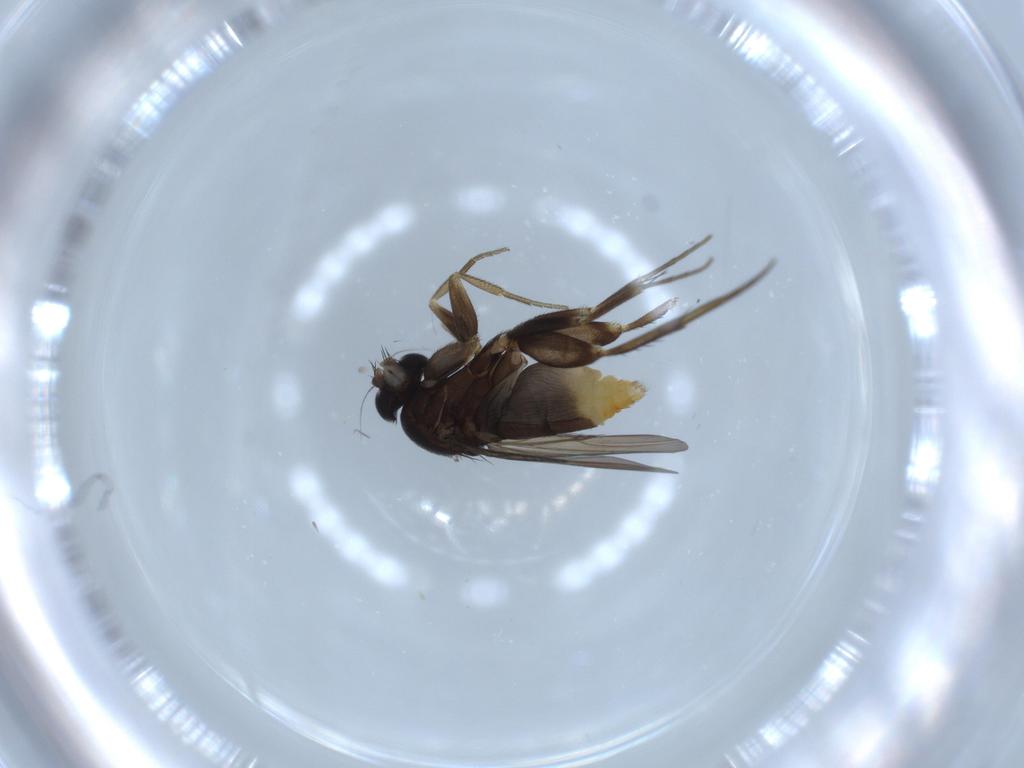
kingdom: Animalia
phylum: Arthropoda
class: Insecta
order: Diptera
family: Phoridae
